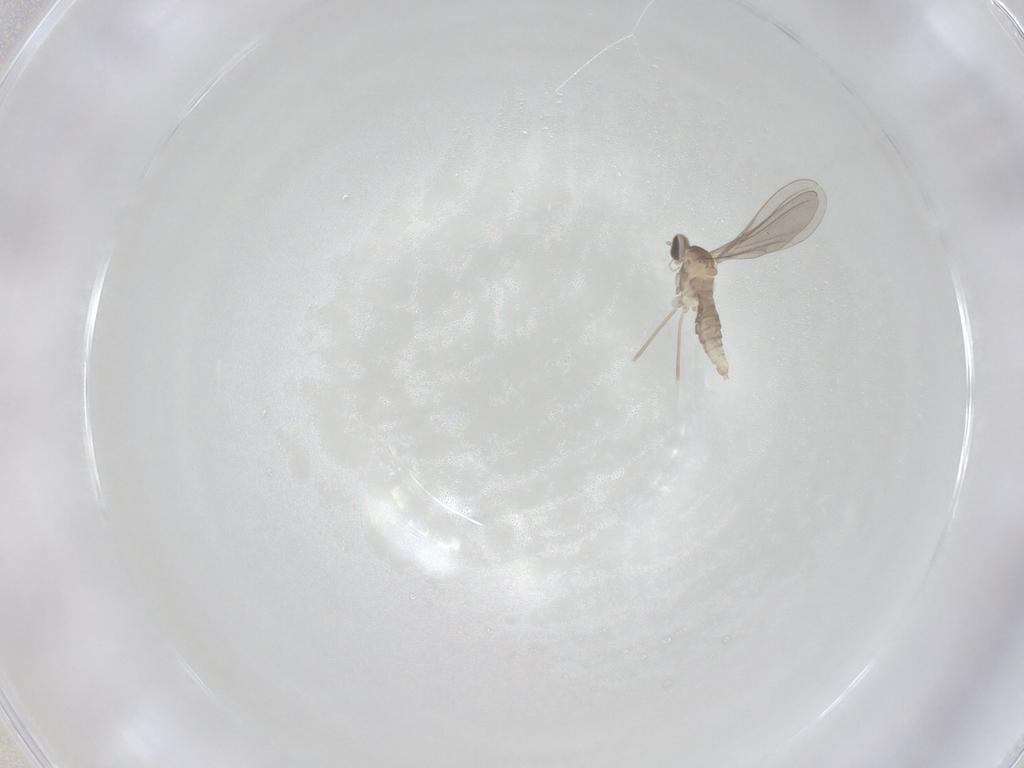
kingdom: Animalia
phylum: Arthropoda
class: Insecta
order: Diptera
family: Cecidomyiidae
